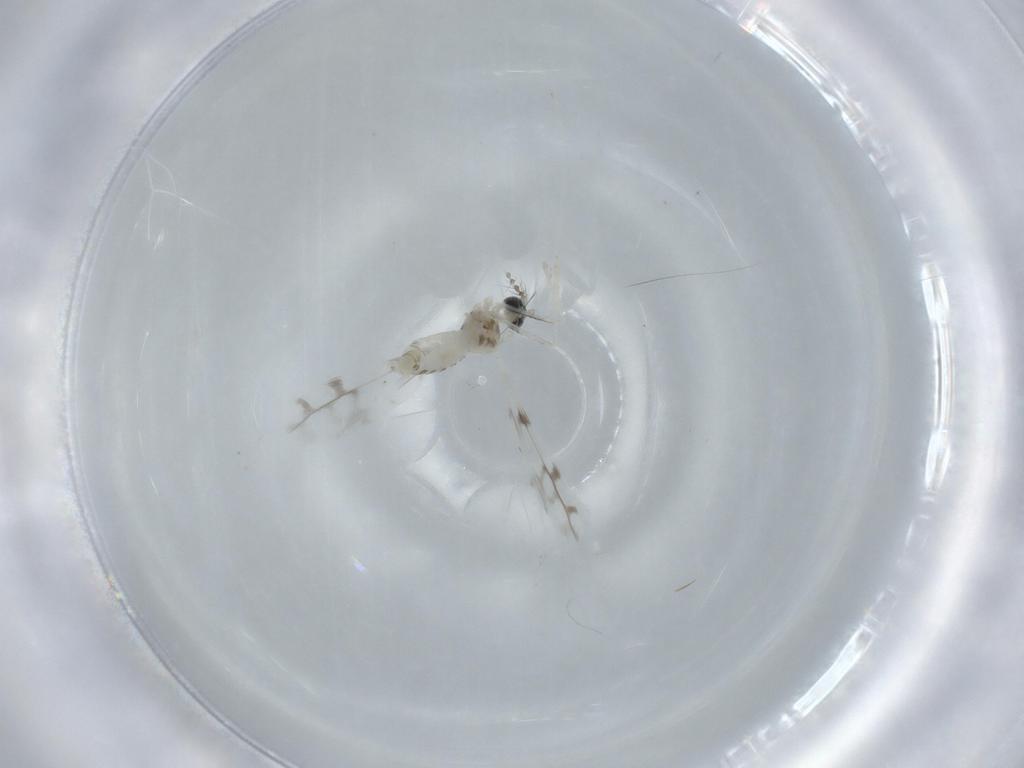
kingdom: Animalia
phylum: Arthropoda
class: Insecta
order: Diptera
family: Cecidomyiidae
